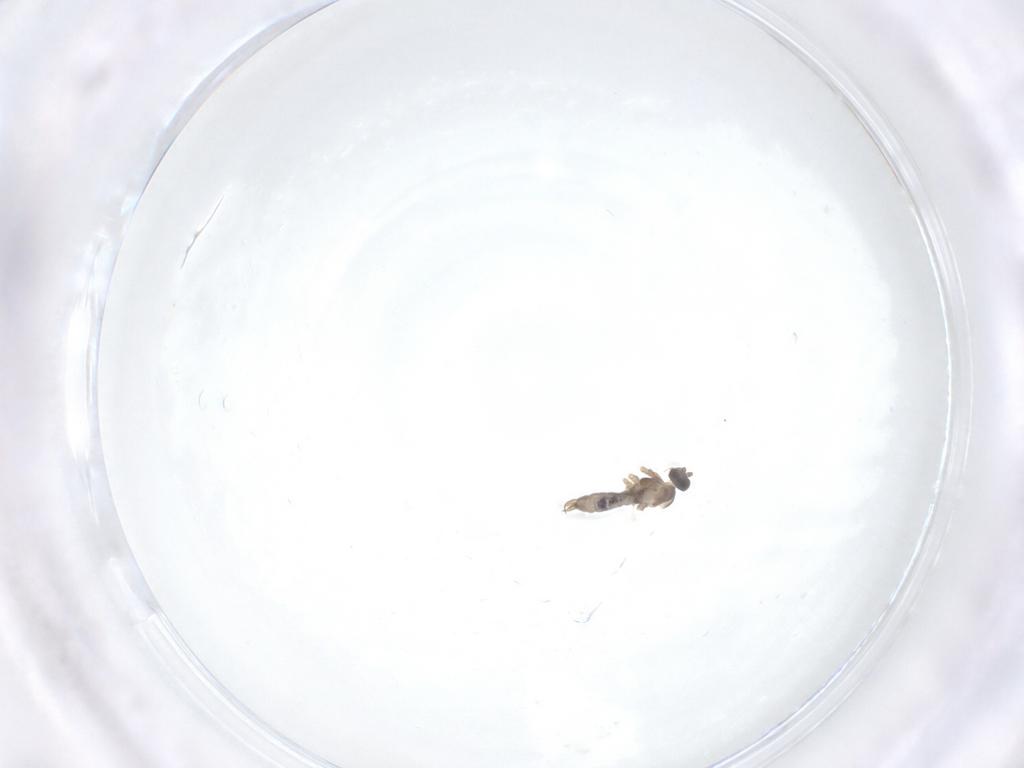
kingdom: Animalia
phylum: Arthropoda
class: Insecta
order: Diptera
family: Cecidomyiidae
